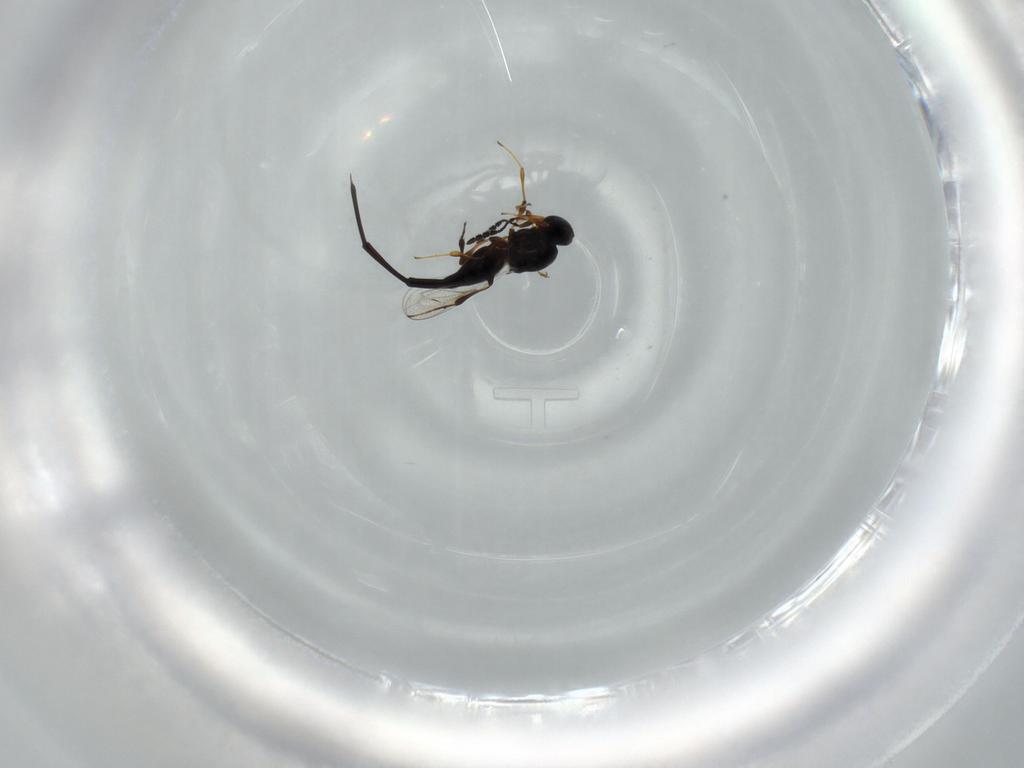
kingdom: Animalia
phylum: Arthropoda
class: Insecta
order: Hymenoptera
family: Platygastridae
